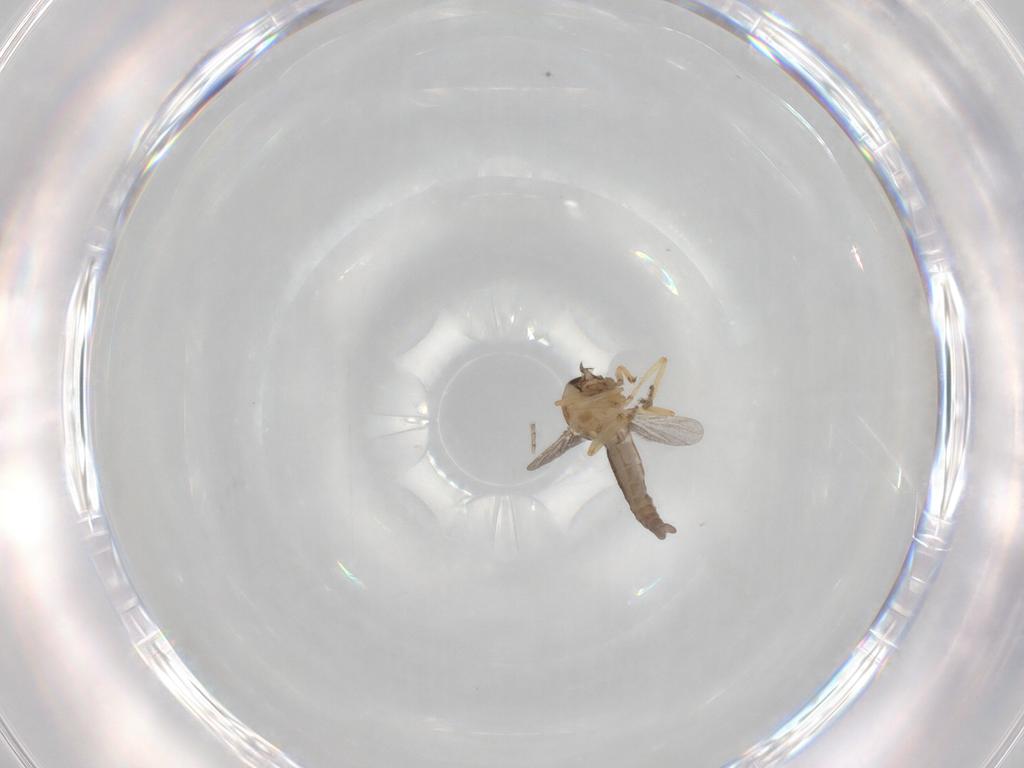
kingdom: Animalia
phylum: Arthropoda
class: Insecta
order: Diptera
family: Ceratopogonidae
